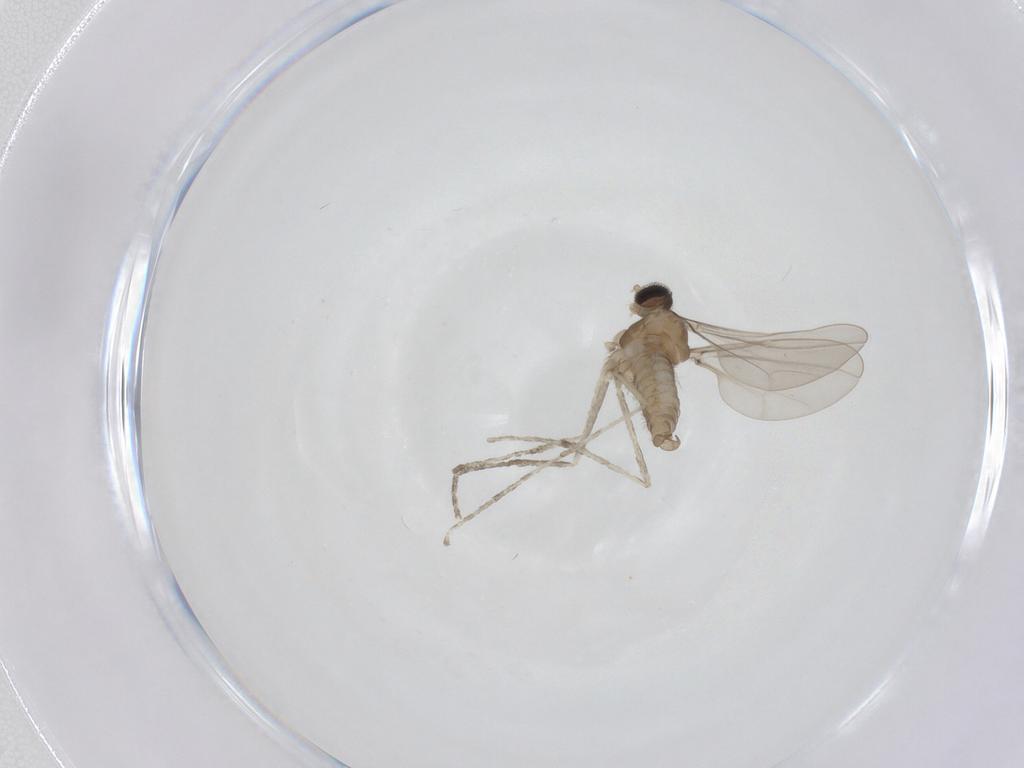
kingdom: Animalia
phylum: Arthropoda
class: Insecta
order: Diptera
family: Cecidomyiidae
